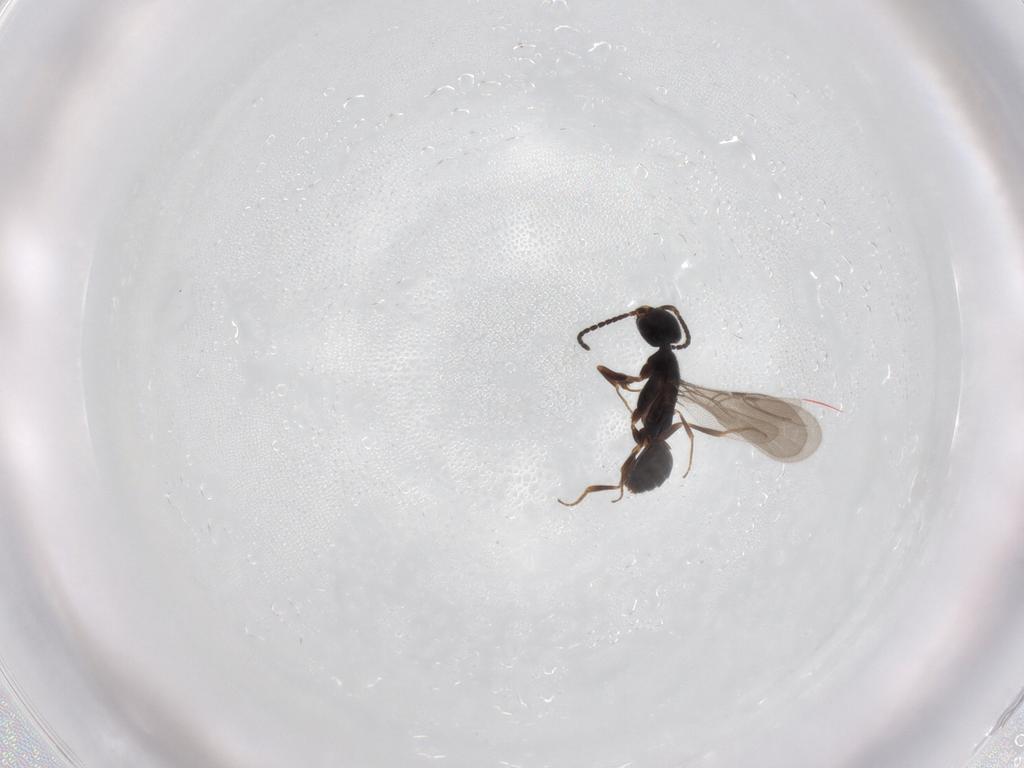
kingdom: Animalia
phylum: Arthropoda
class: Insecta
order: Hymenoptera
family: Bethylidae
